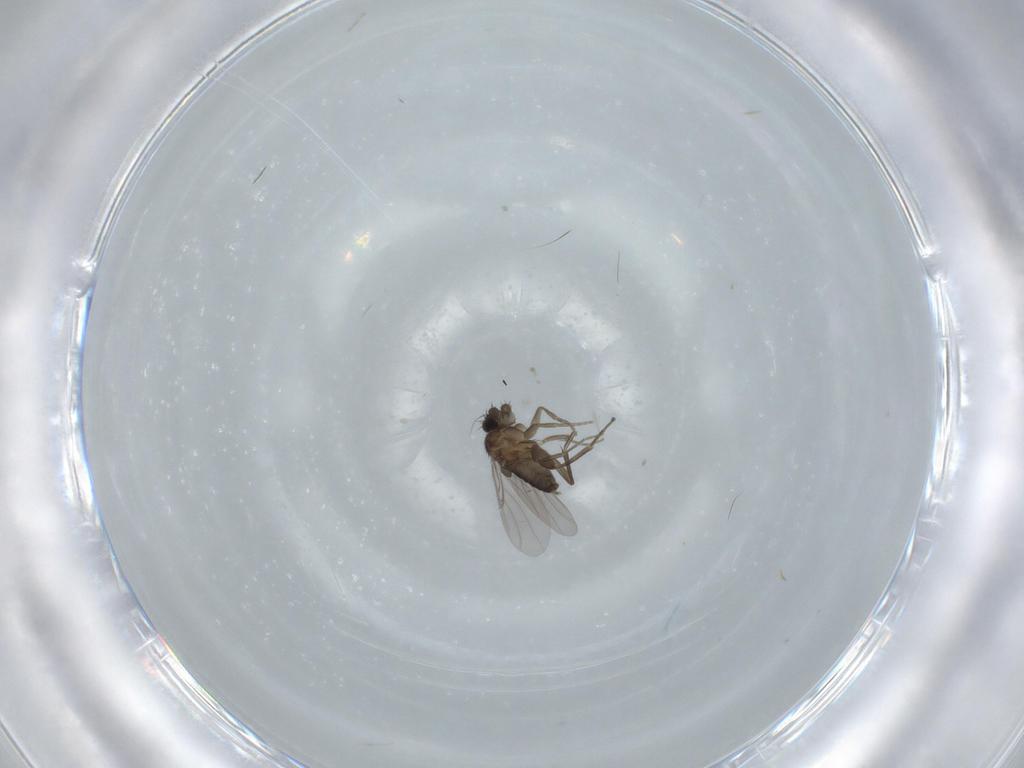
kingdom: Animalia
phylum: Arthropoda
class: Insecta
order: Diptera
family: Phoridae
